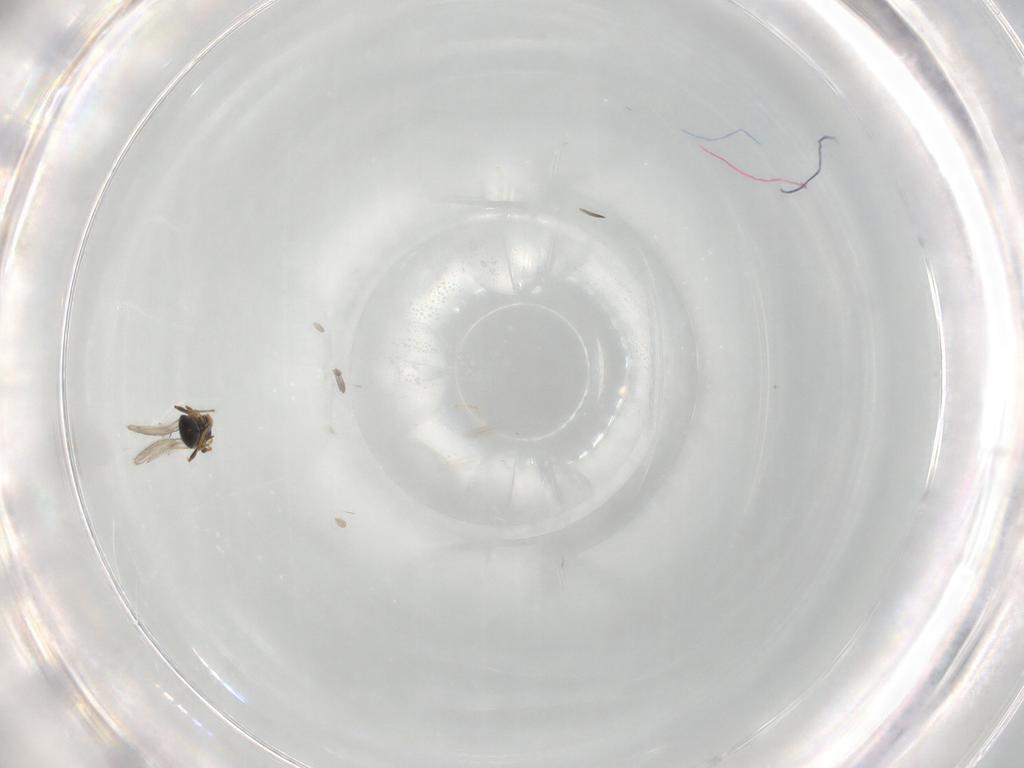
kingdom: Animalia
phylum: Arthropoda
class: Insecta
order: Hymenoptera
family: Platygastridae
